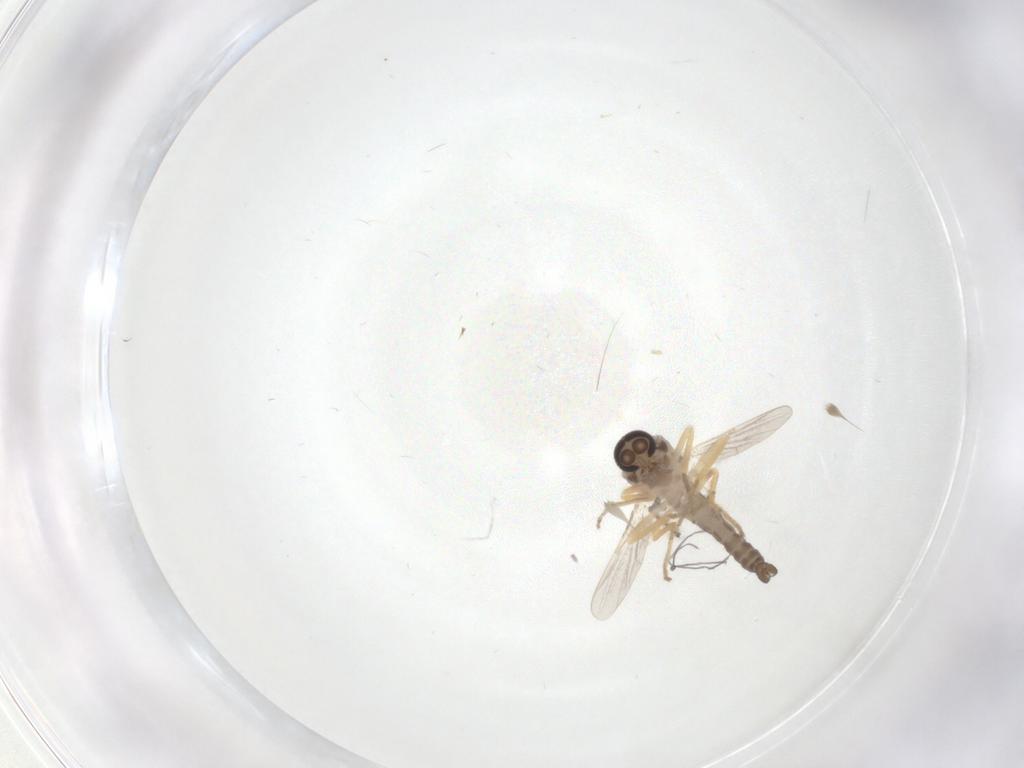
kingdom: Animalia
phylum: Arthropoda
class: Insecta
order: Diptera
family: Ceratopogonidae
